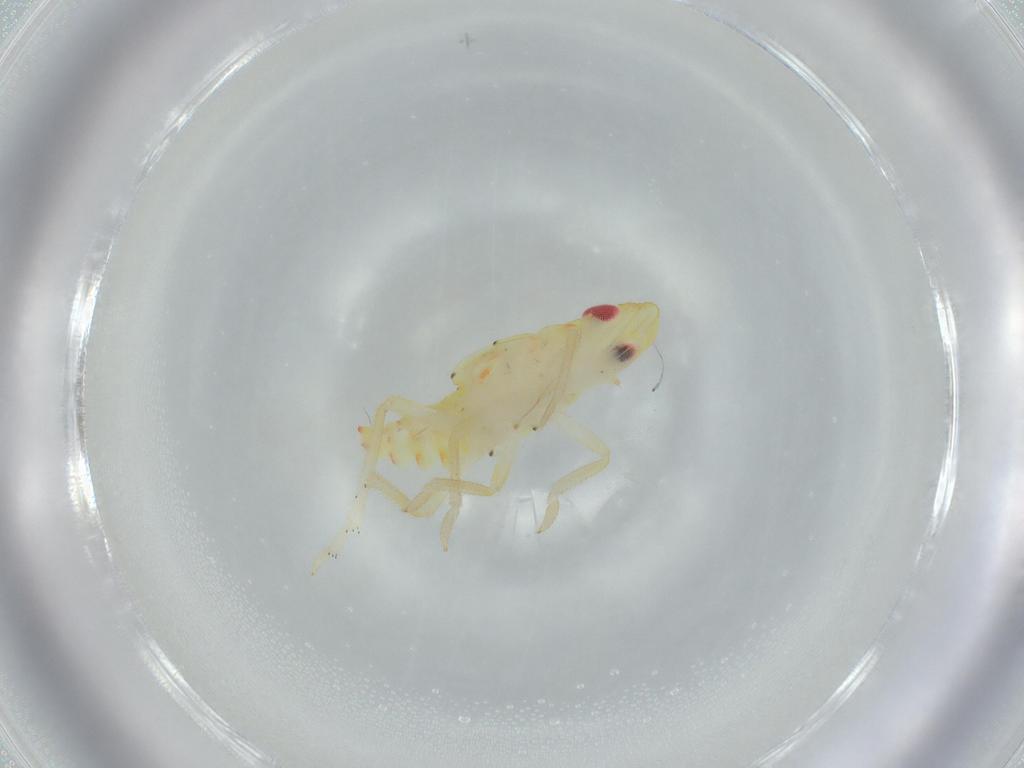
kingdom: Animalia
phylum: Arthropoda
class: Insecta
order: Hemiptera
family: Tropiduchidae
